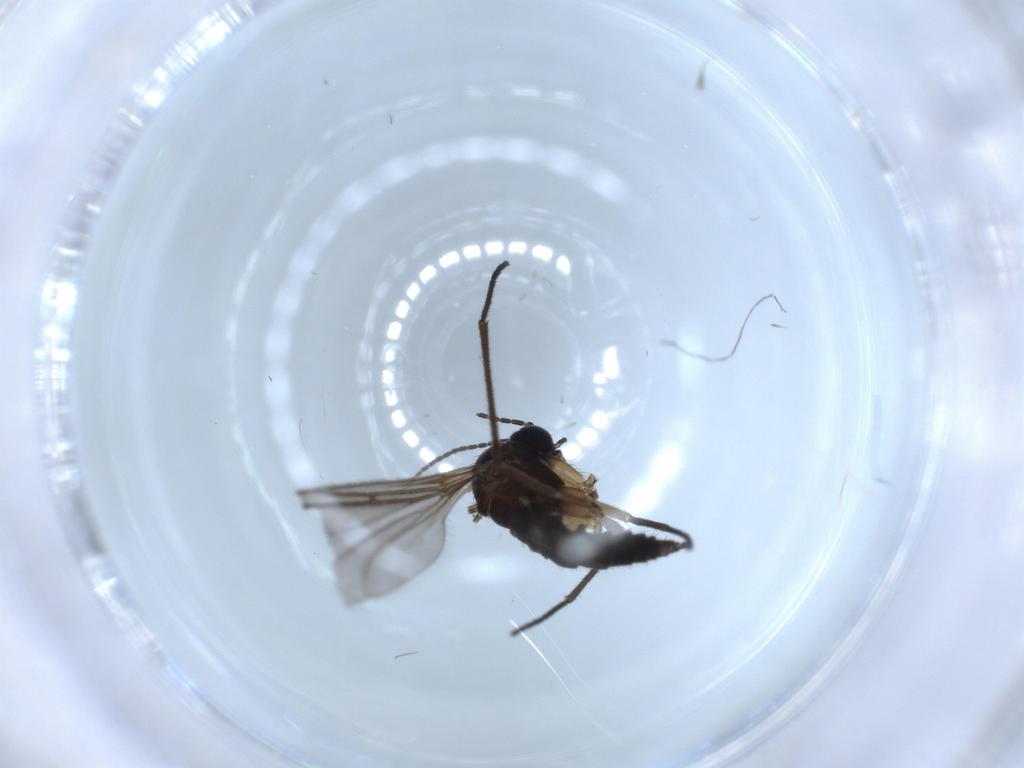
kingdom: Animalia
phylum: Arthropoda
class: Insecta
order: Diptera
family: Sciaridae
